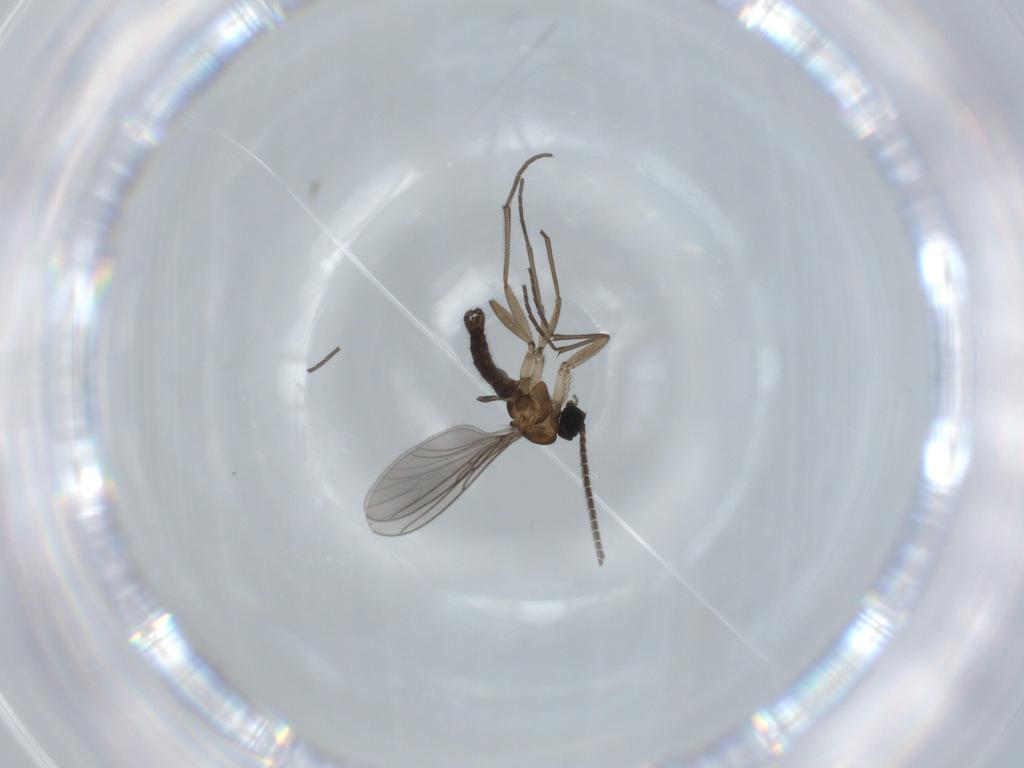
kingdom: Animalia
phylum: Arthropoda
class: Insecta
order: Diptera
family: Sciaridae
